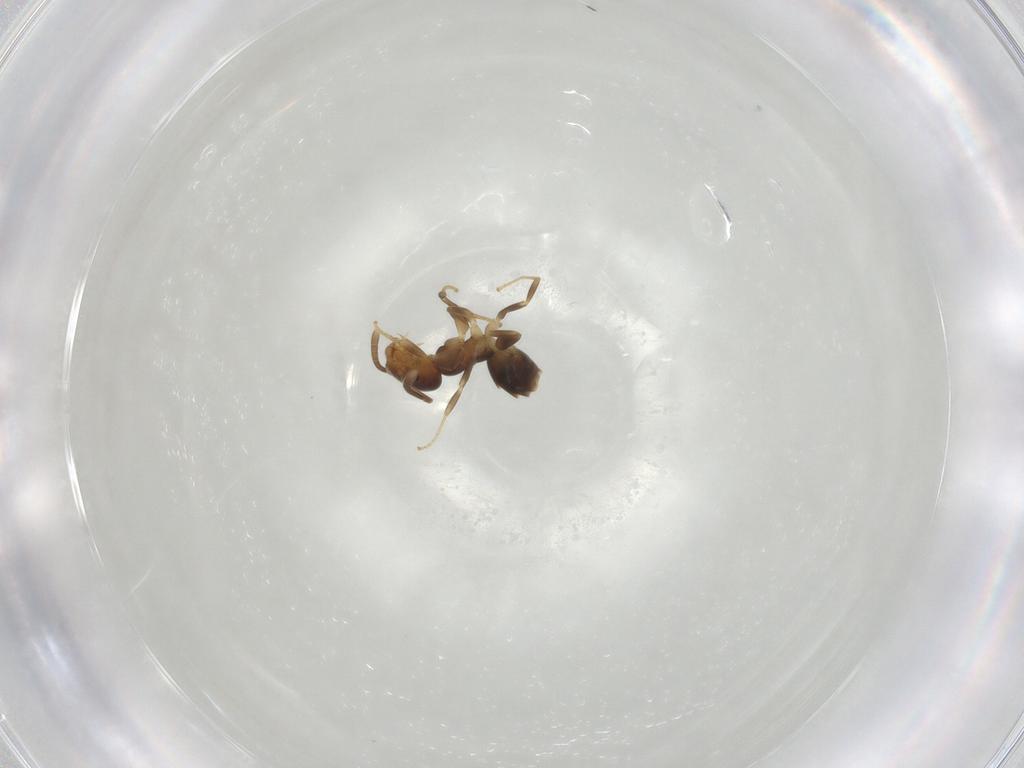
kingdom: Animalia
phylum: Arthropoda
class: Insecta
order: Hymenoptera
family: Formicidae
